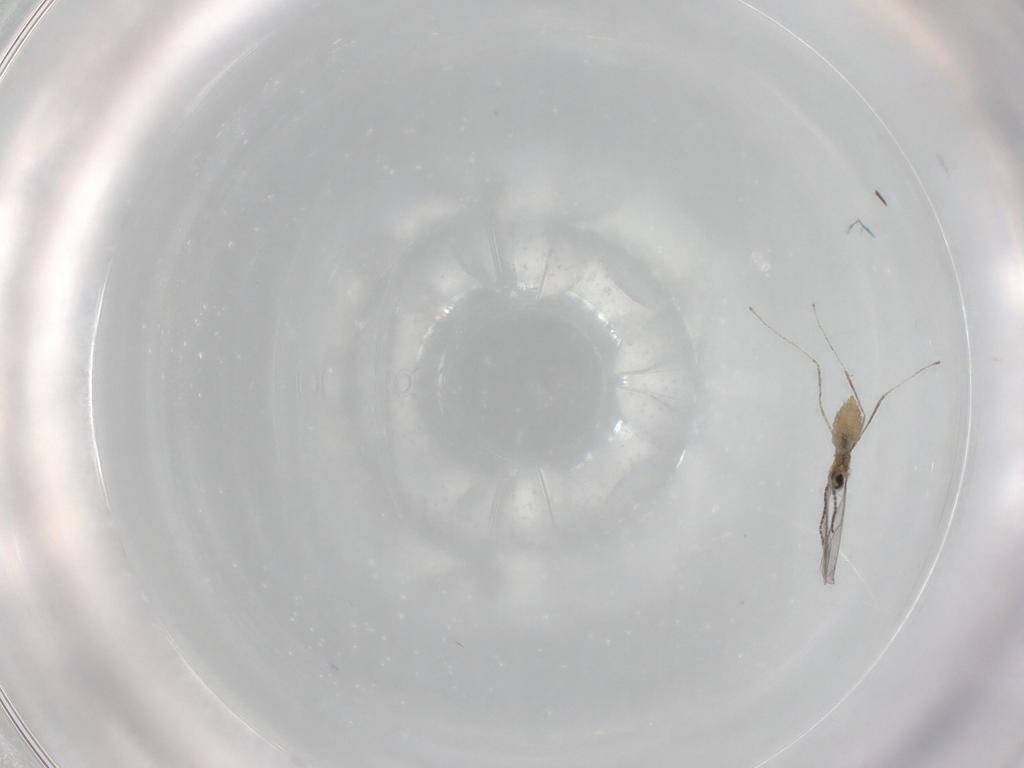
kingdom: Animalia
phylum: Arthropoda
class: Insecta
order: Diptera
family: Cecidomyiidae
